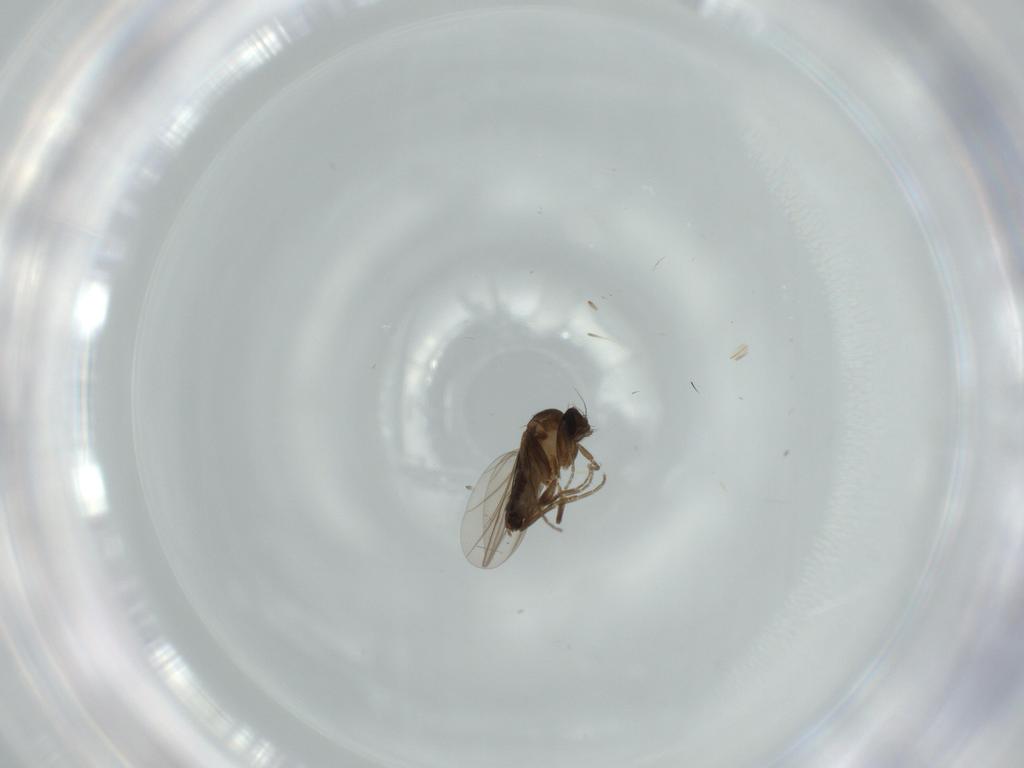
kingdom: Animalia
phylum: Arthropoda
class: Insecta
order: Diptera
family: Phoridae
